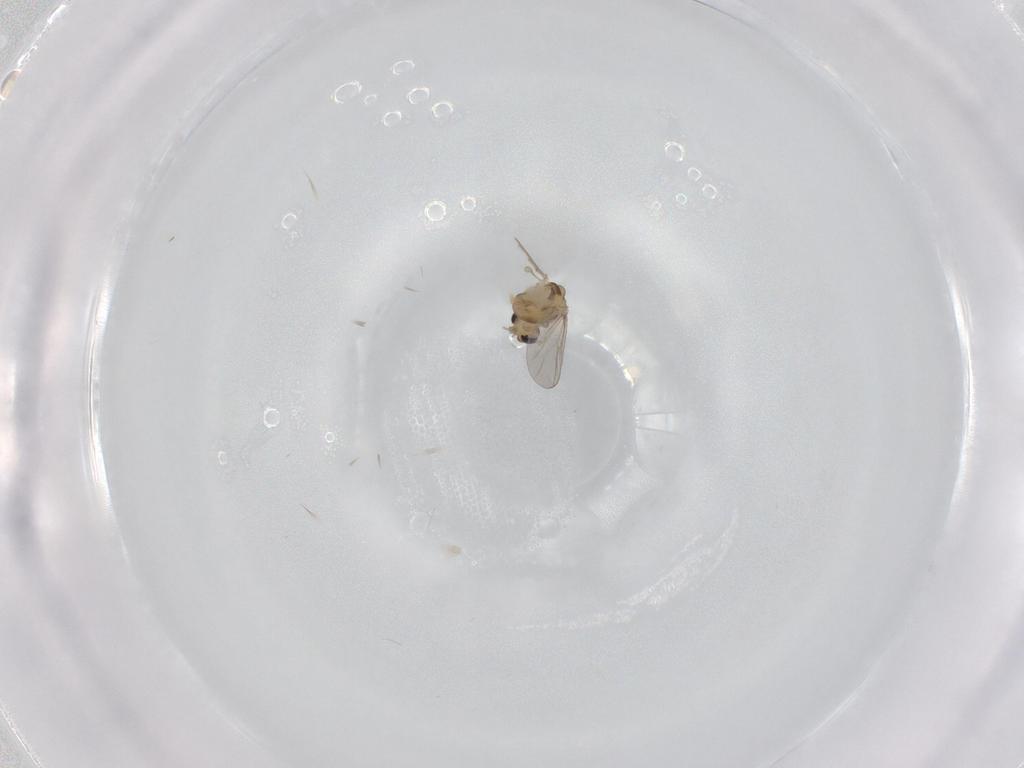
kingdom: Animalia
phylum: Arthropoda
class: Insecta
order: Diptera
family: Chironomidae
